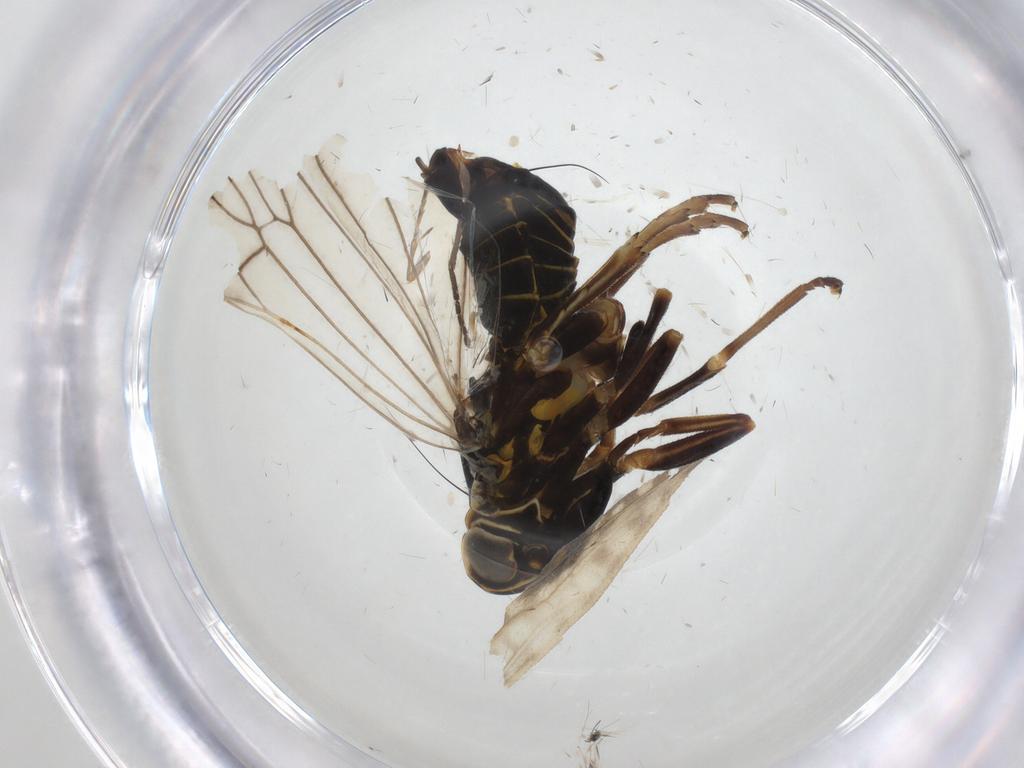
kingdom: Animalia
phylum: Arthropoda
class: Insecta
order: Hemiptera
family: Cixiidae
